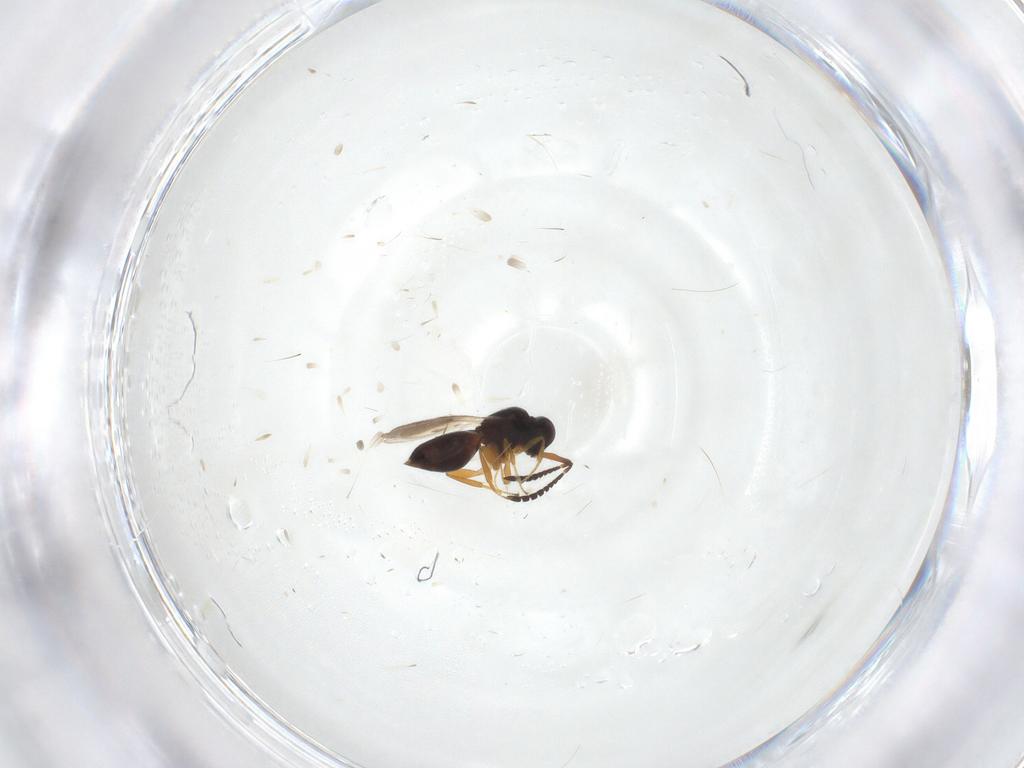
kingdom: Animalia
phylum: Arthropoda
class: Insecta
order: Hymenoptera
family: Ceraphronidae
